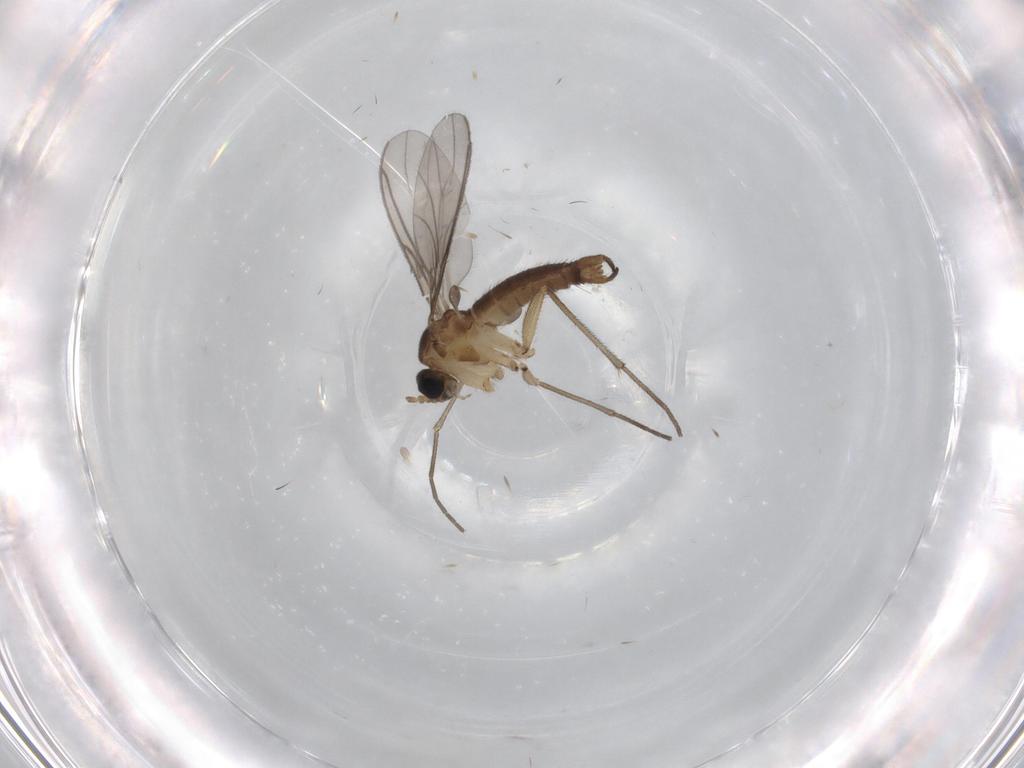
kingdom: Animalia
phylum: Arthropoda
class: Insecta
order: Diptera
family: Sciaridae
